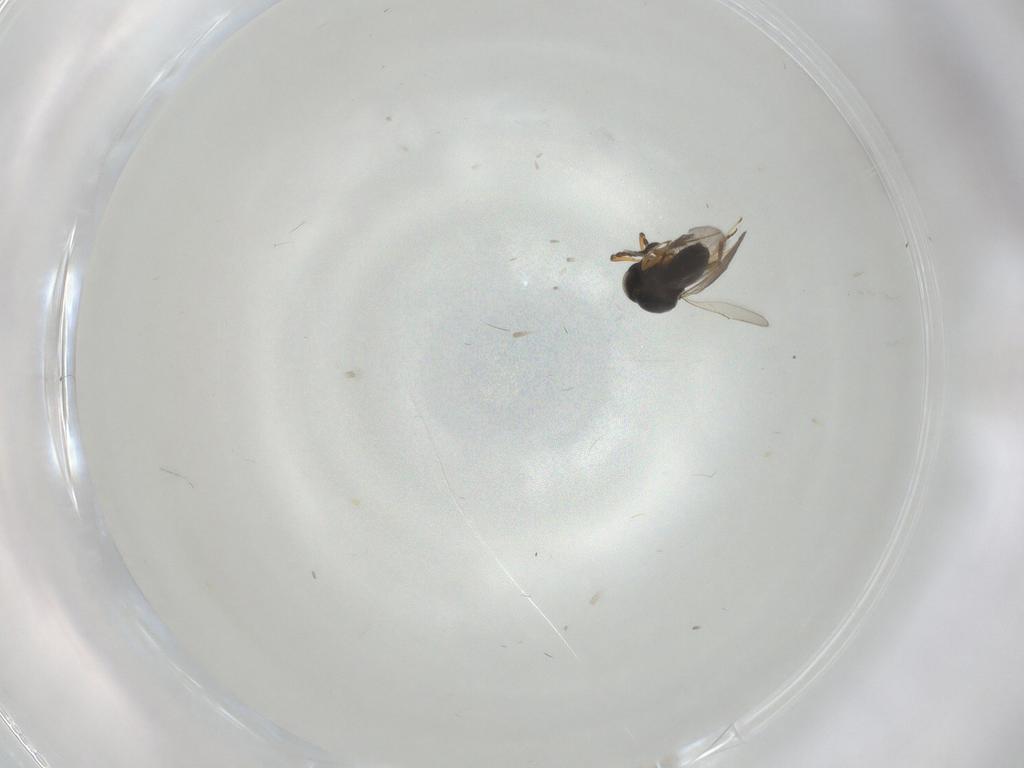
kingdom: Animalia
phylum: Arthropoda
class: Insecta
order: Hymenoptera
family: Scelionidae
